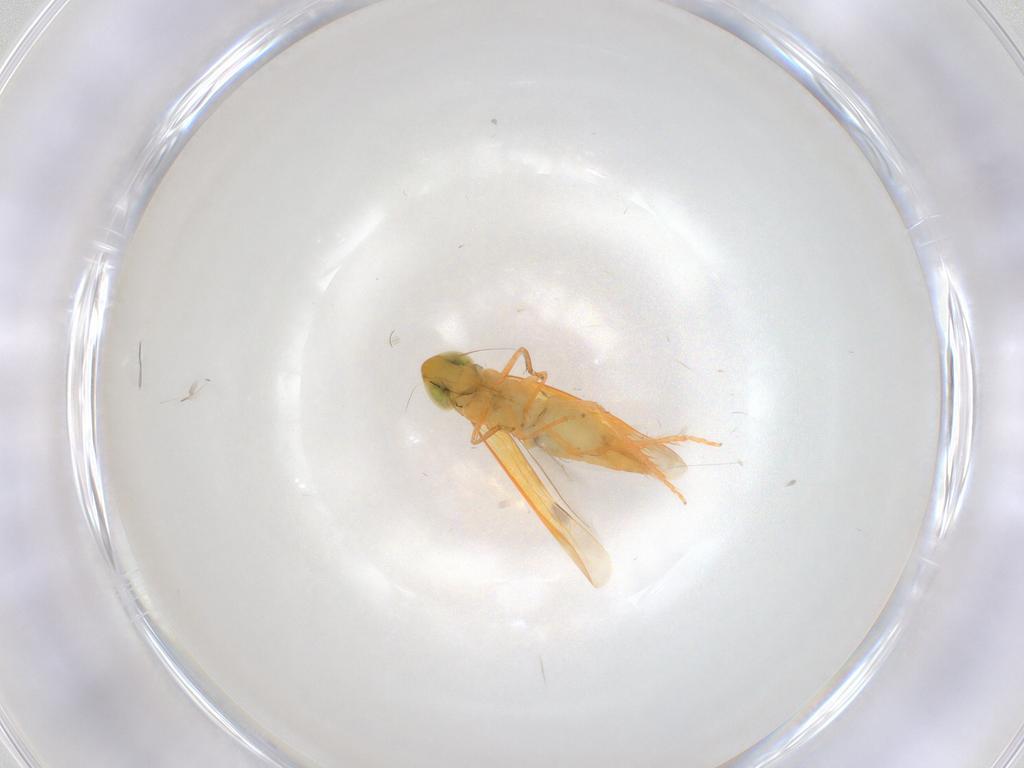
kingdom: Animalia
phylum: Arthropoda
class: Insecta
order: Hemiptera
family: Cicadellidae
